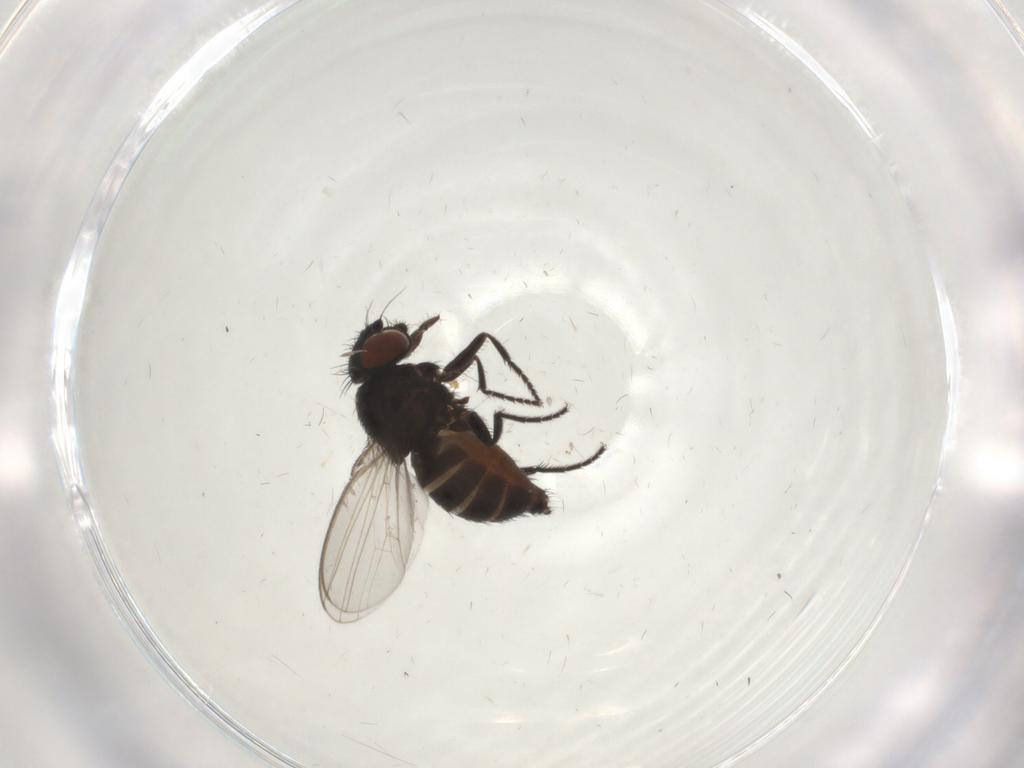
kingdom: Animalia
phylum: Arthropoda
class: Insecta
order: Diptera
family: Milichiidae
